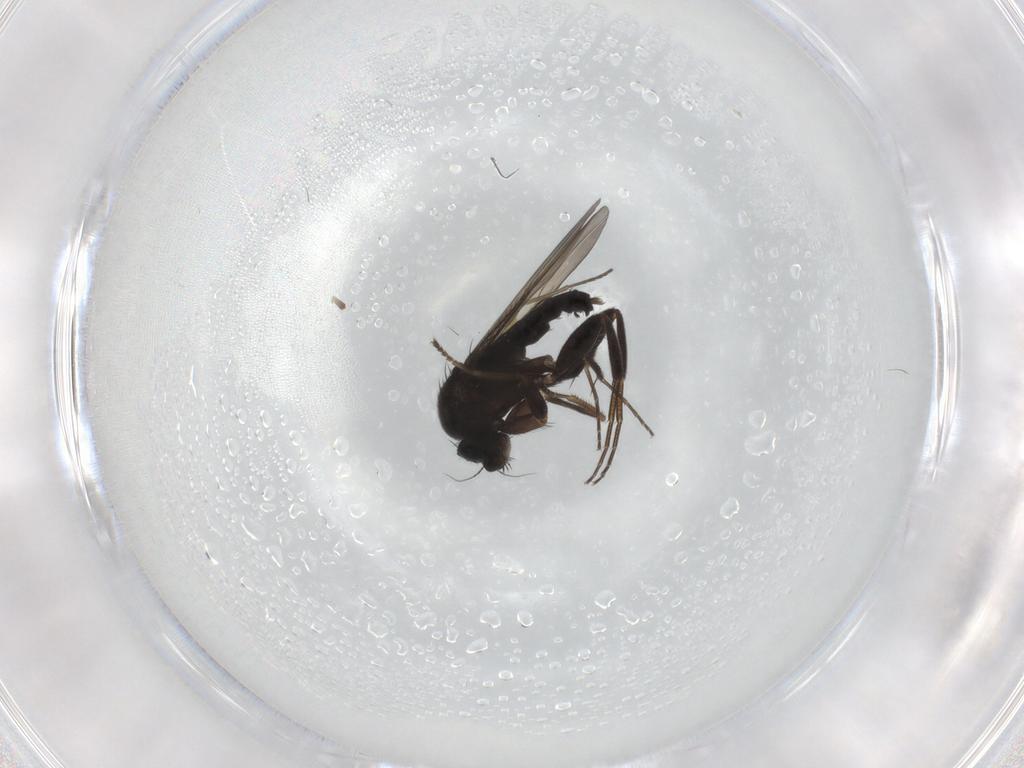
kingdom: Animalia
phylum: Arthropoda
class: Insecta
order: Diptera
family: Phoridae
